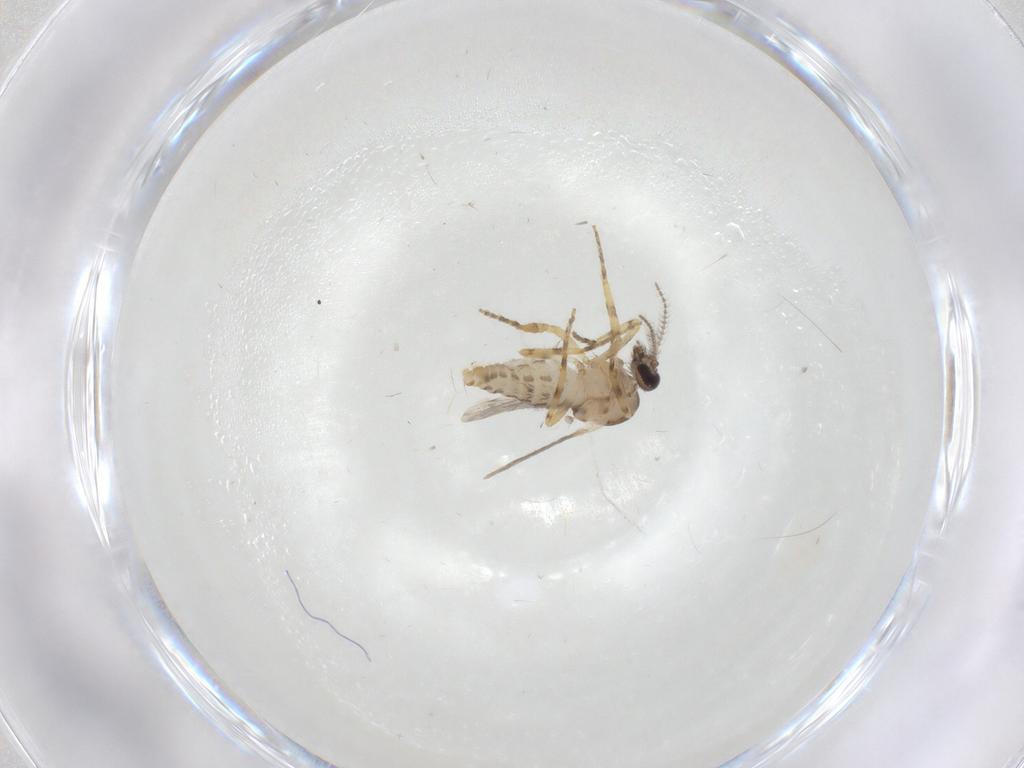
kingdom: Animalia
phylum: Arthropoda
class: Insecta
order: Diptera
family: Ceratopogonidae
